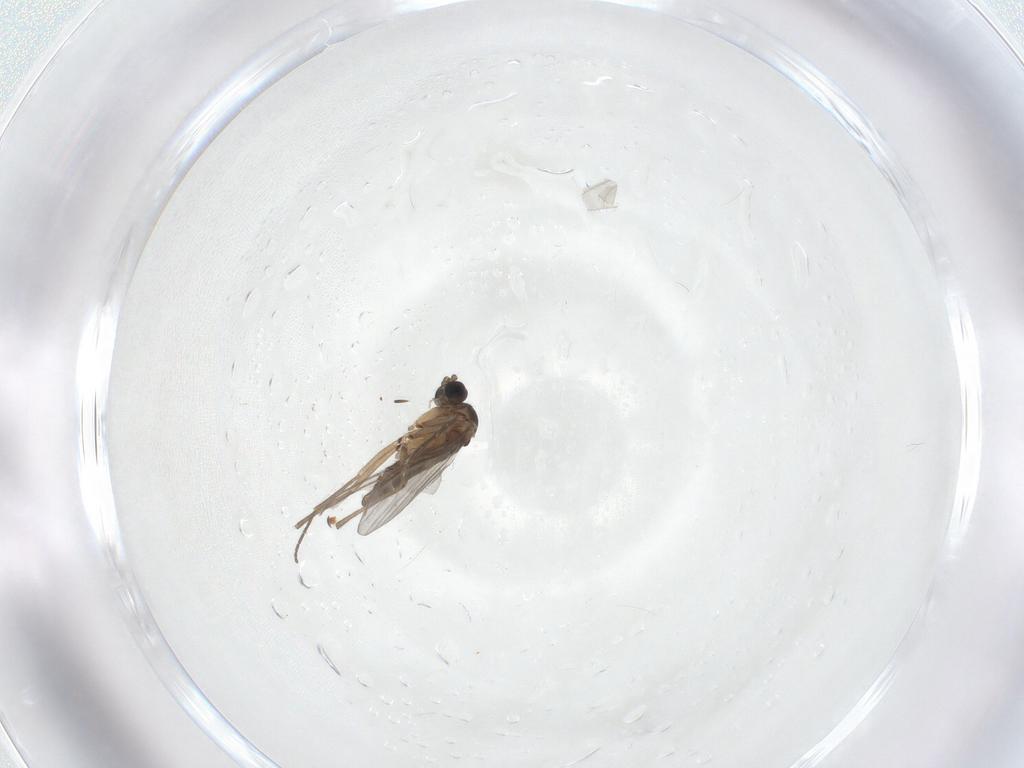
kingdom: Animalia
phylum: Arthropoda
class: Insecta
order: Diptera
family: Sciaridae
